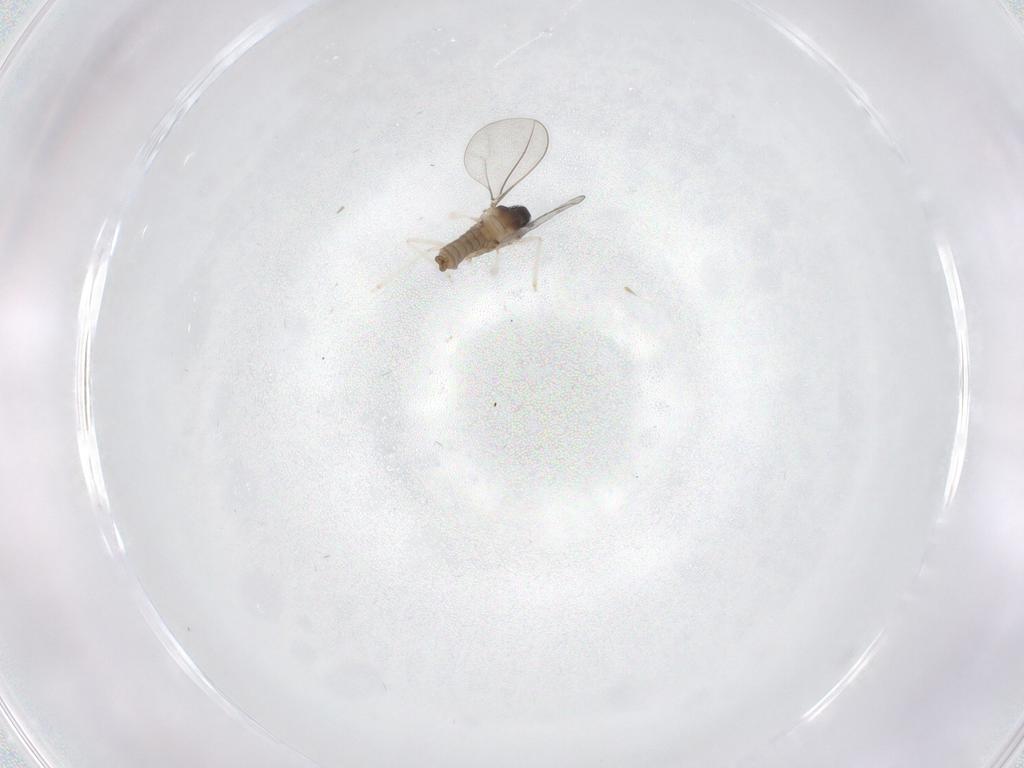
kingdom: Animalia
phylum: Arthropoda
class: Insecta
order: Diptera
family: Cecidomyiidae
